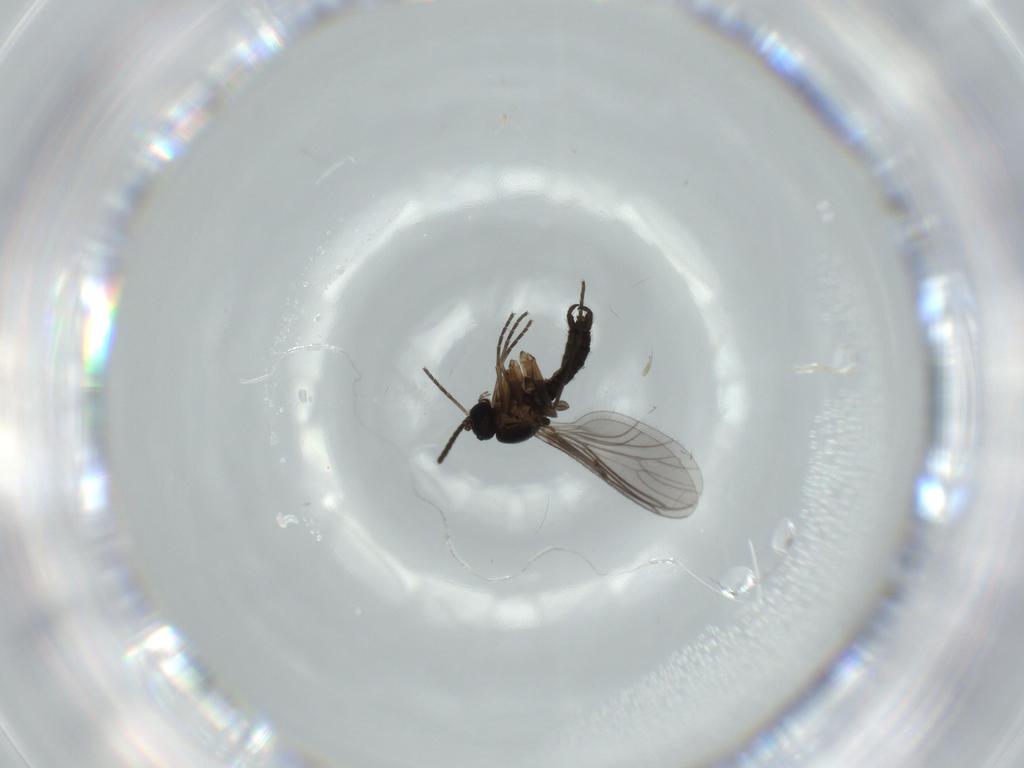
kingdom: Animalia
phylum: Arthropoda
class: Insecta
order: Diptera
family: Sciaridae
